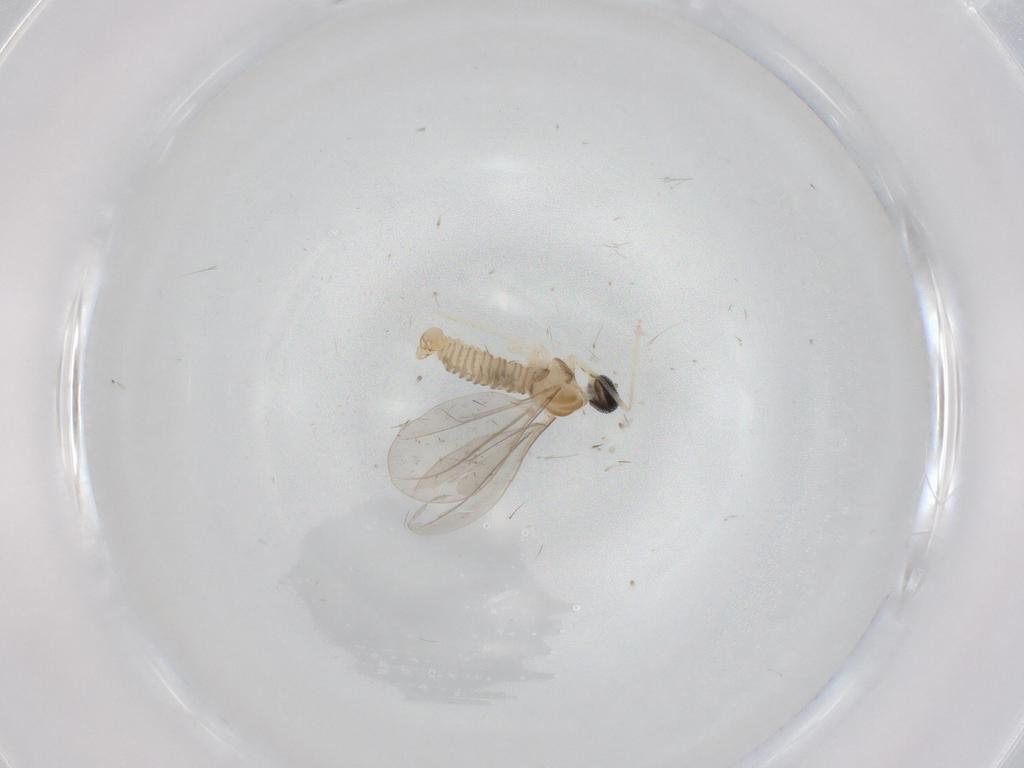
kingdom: Animalia
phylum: Arthropoda
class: Insecta
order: Diptera
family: Cecidomyiidae
